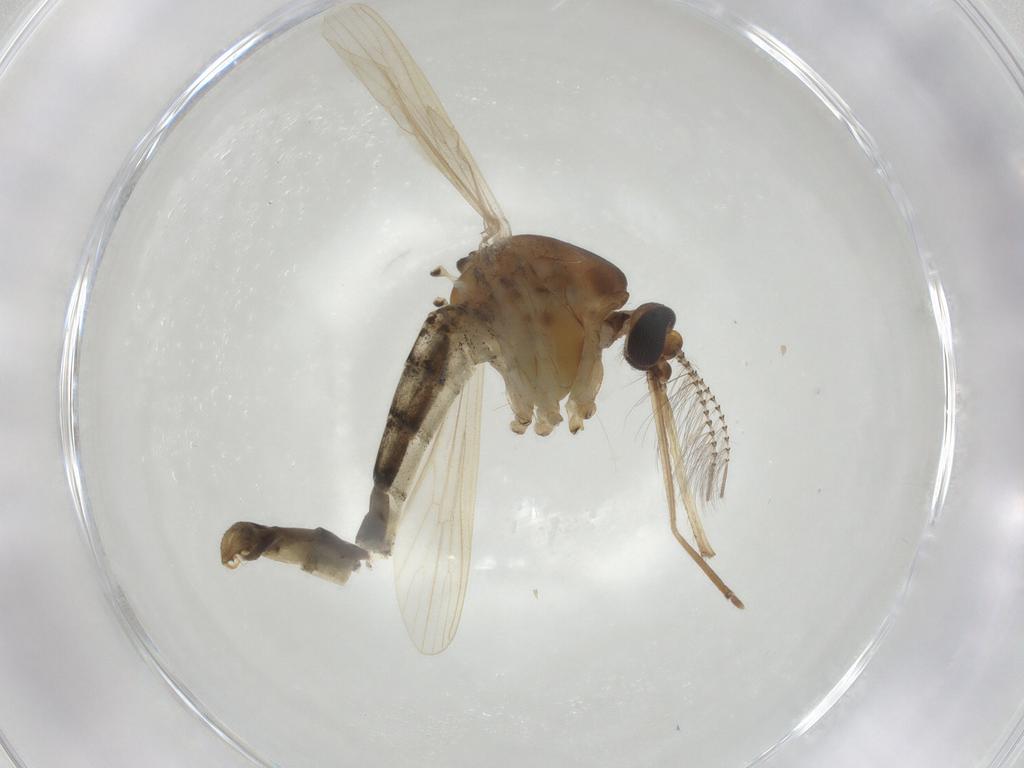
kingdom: Animalia
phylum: Arthropoda
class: Insecta
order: Diptera
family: Culicidae
